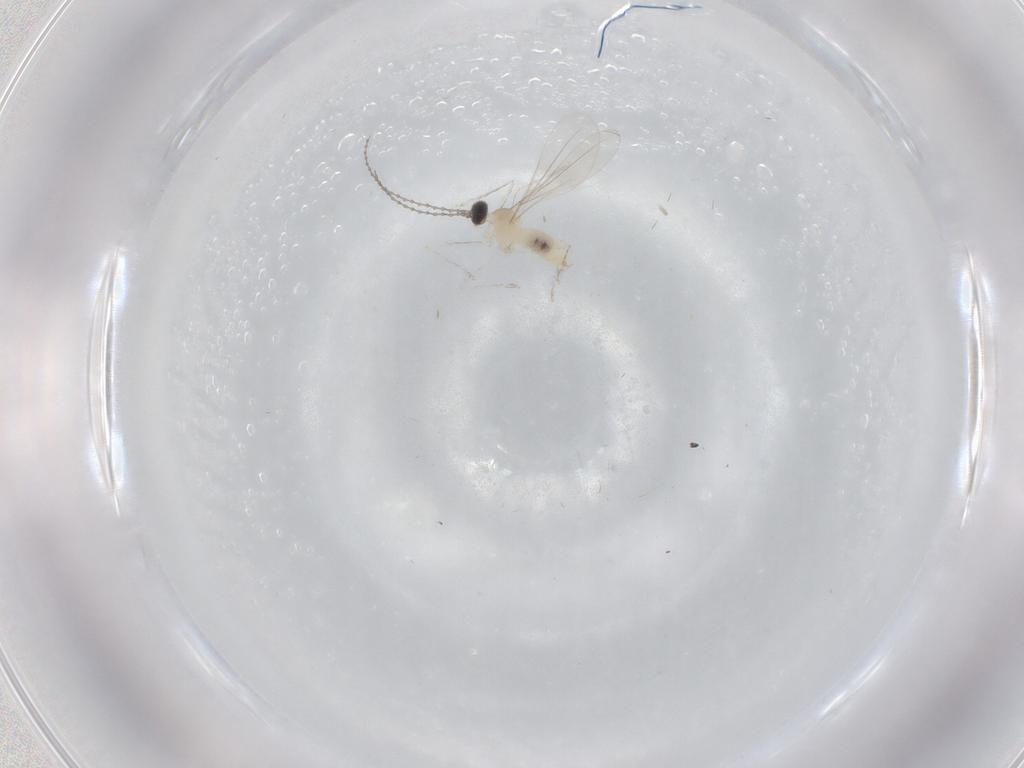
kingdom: Animalia
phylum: Arthropoda
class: Insecta
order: Diptera
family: Cecidomyiidae
